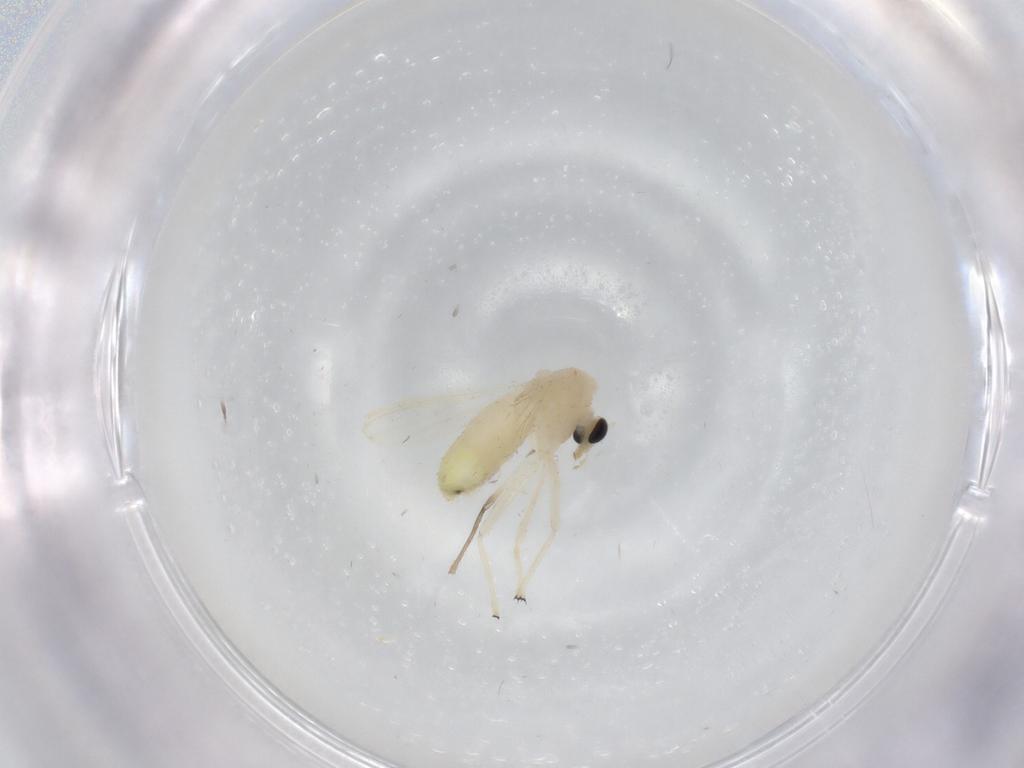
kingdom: Animalia
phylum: Arthropoda
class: Insecta
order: Diptera
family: Chironomidae
